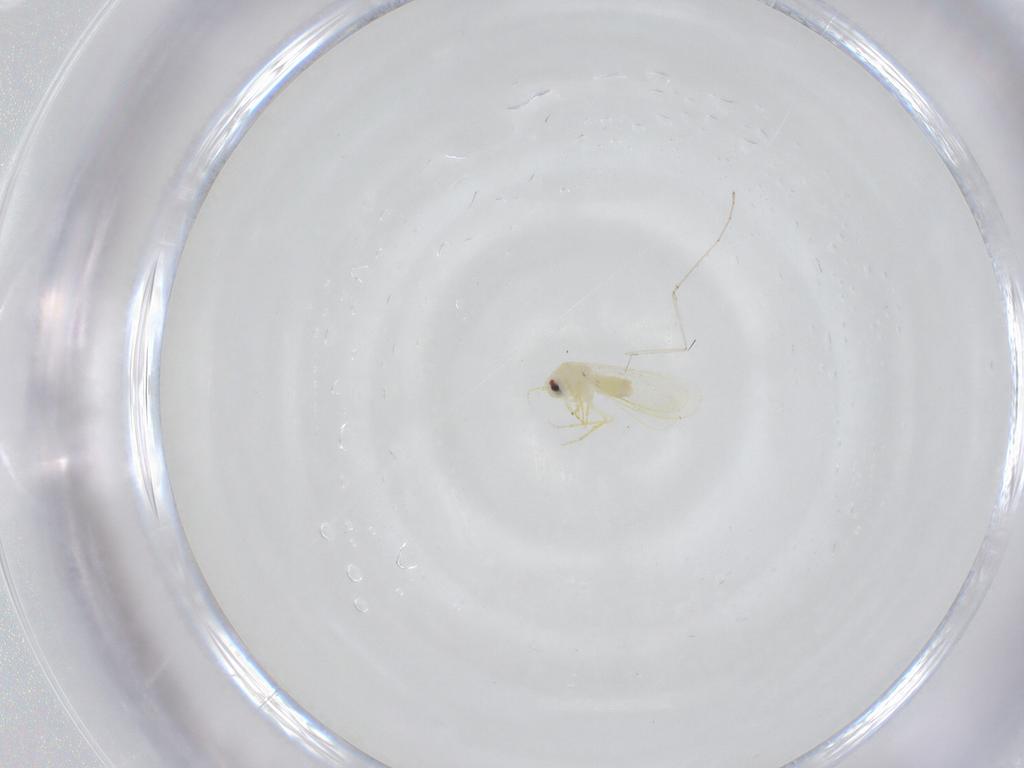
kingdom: Animalia
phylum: Arthropoda
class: Insecta
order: Hemiptera
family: Aleyrodidae
